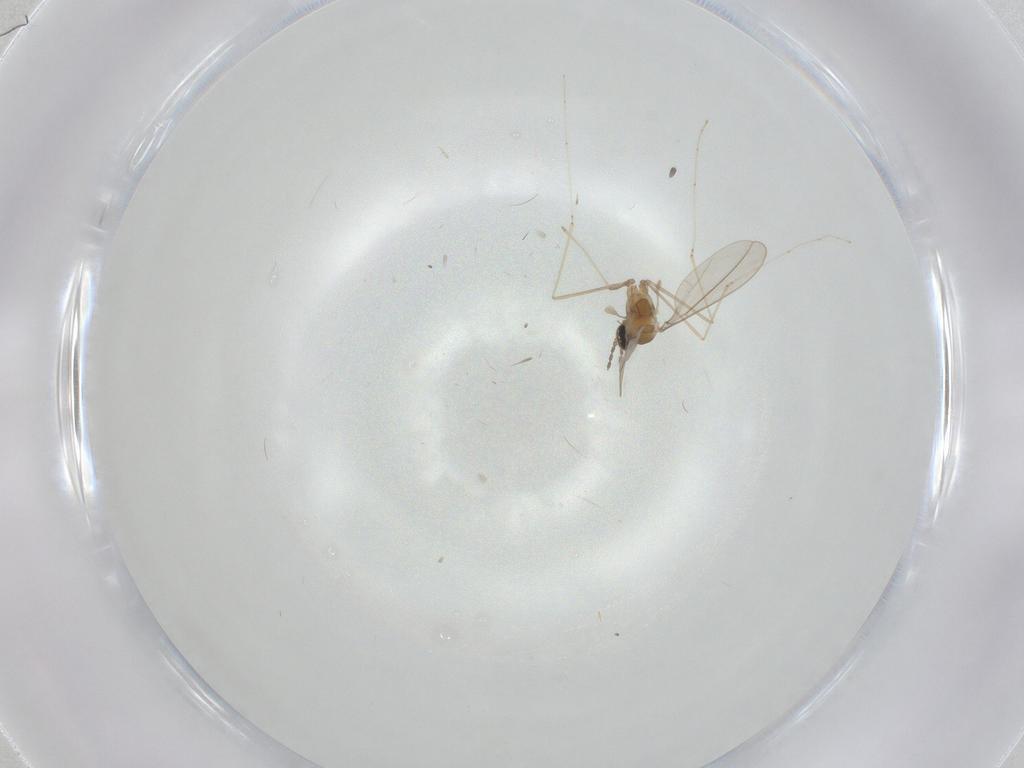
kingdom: Animalia
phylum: Arthropoda
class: Insecta
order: Diptera
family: Cecidomyiidae
